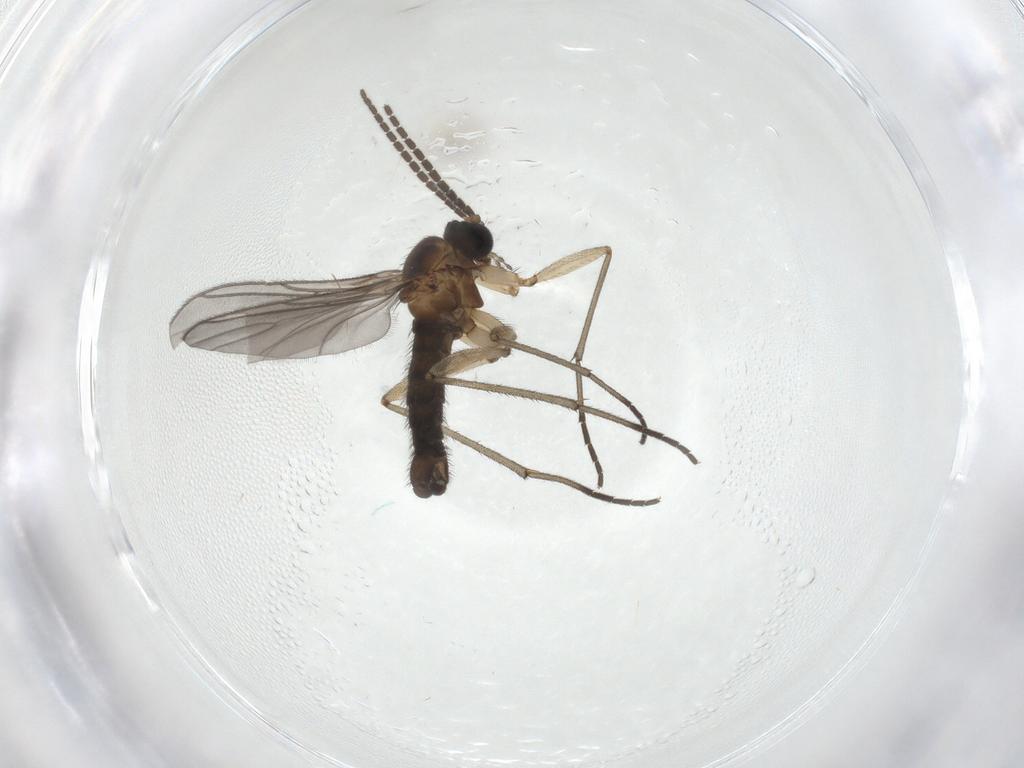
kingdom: Animalia
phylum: Arthropoda
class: Insecta
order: Diptera
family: Sciaridae
